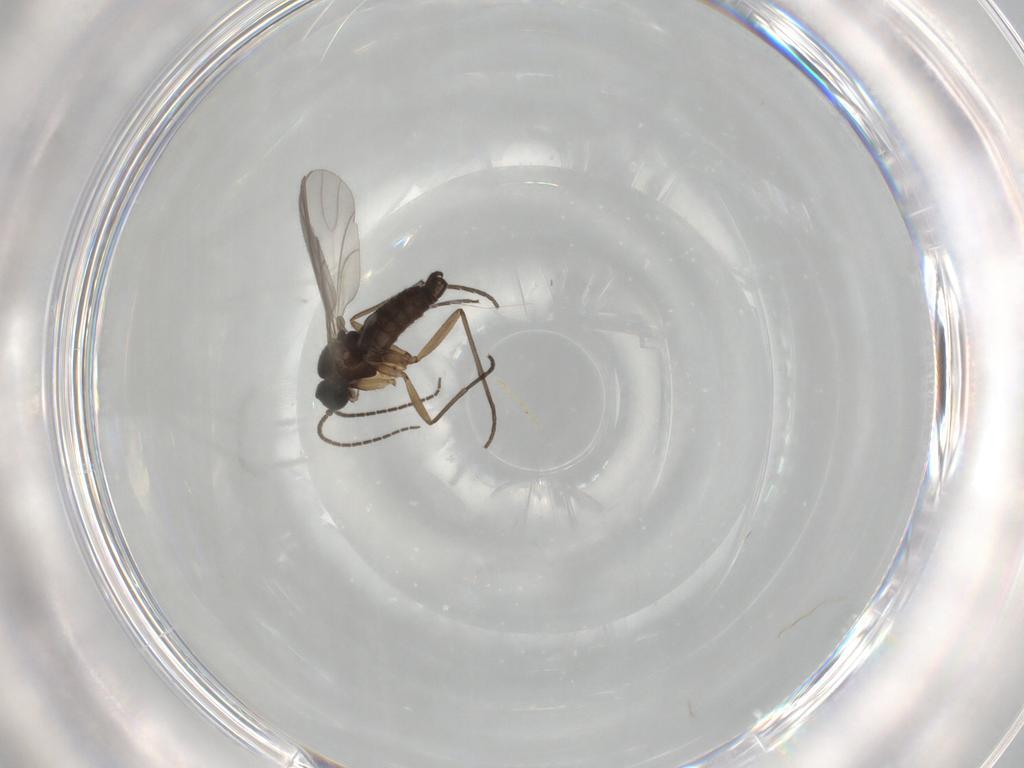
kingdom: Animalia
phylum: Arthropoda
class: Insecta
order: Diptera
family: Sciaridae
